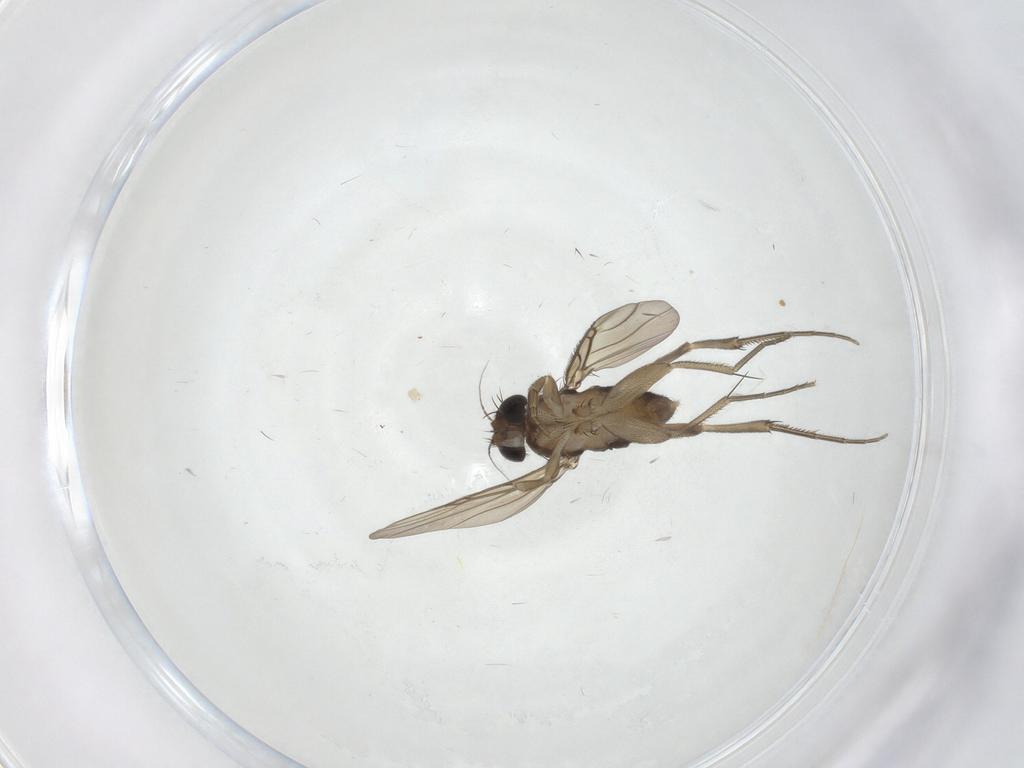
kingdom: Animalia
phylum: Arthropoda
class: Insecta
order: Diptera
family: Phoridae
